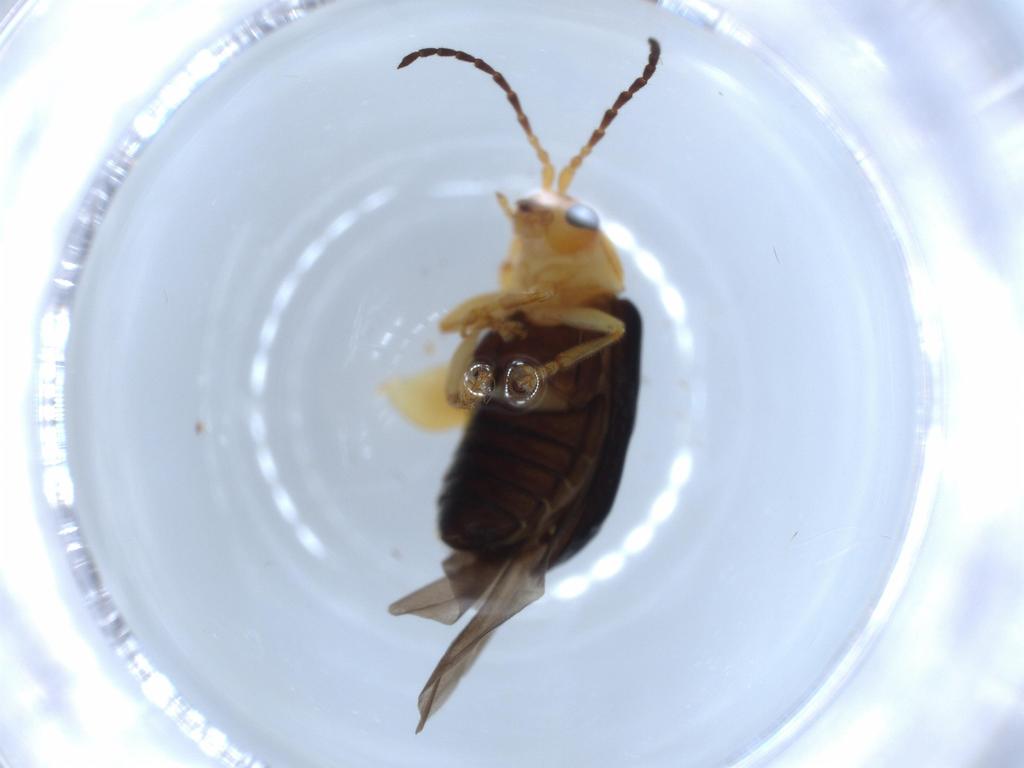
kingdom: Animalia
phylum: Arthropoda
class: Insecta
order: Coleoptera
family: Chrysomelidae
